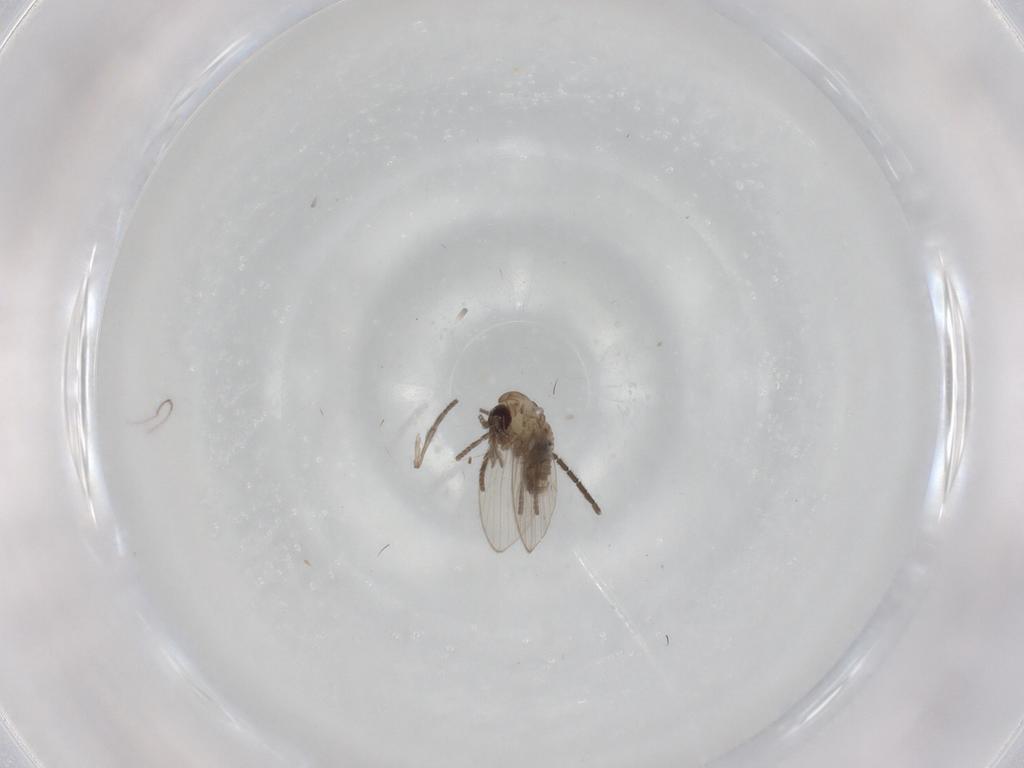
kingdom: Animalia
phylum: Arthropoda
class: Insecta
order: Diptera
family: Psychodidae
